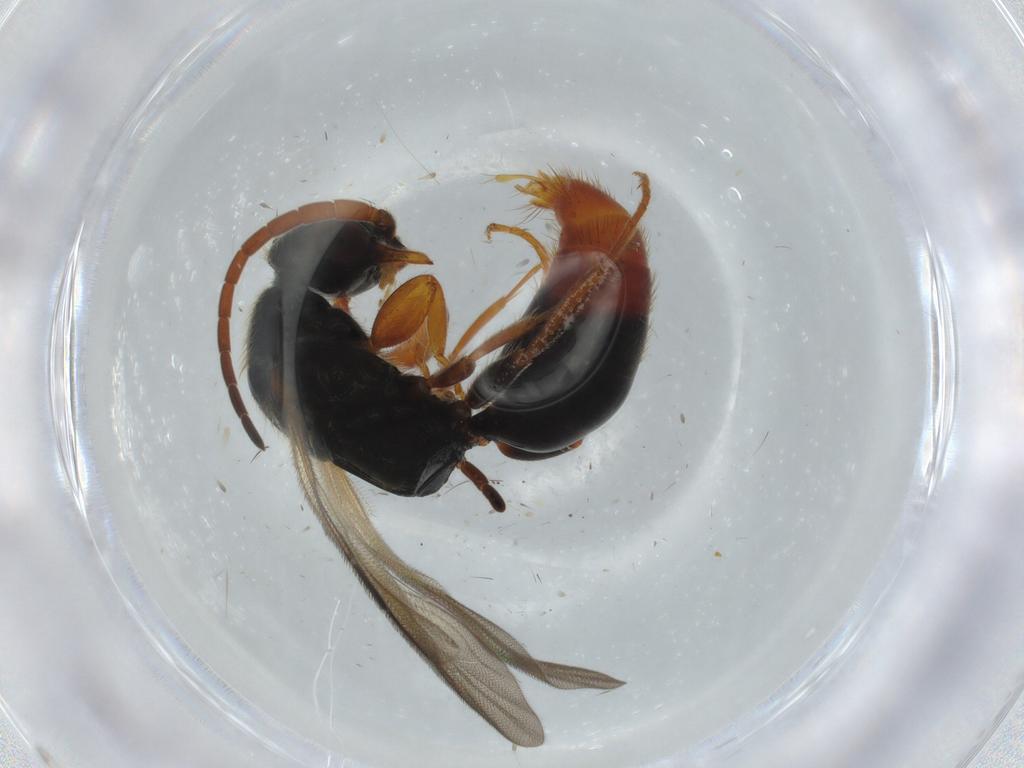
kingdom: Animalia
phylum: Arthropoda
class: Insecta
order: Hymenoptera
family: Bethylidae
